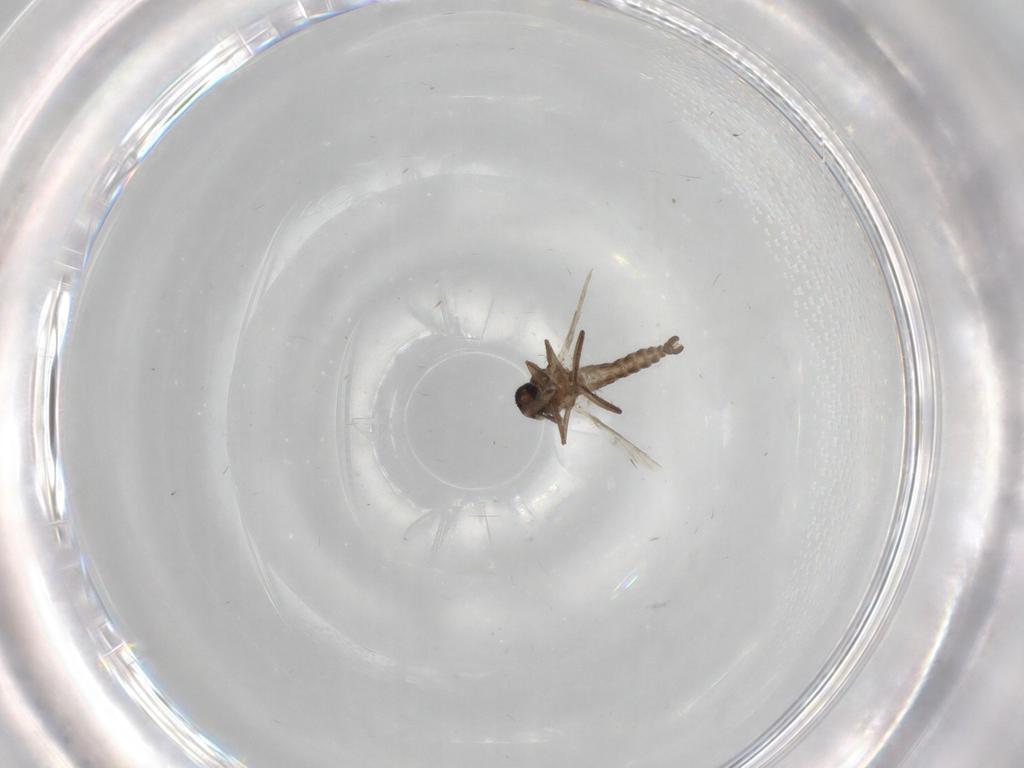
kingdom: Animalia
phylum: Arthropoda
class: Insecta
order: Diptera
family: Ceratopogonidae
